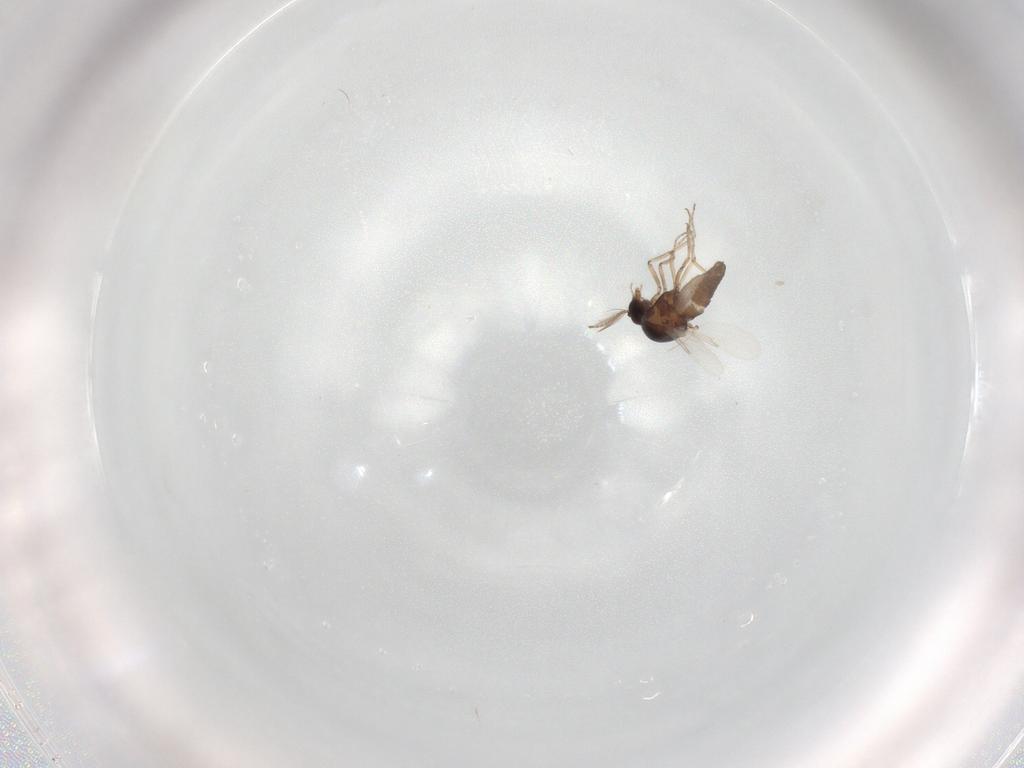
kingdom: Animalia
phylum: Arthropoda
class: Insecta
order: Diptera
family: Ceratopogonidae
